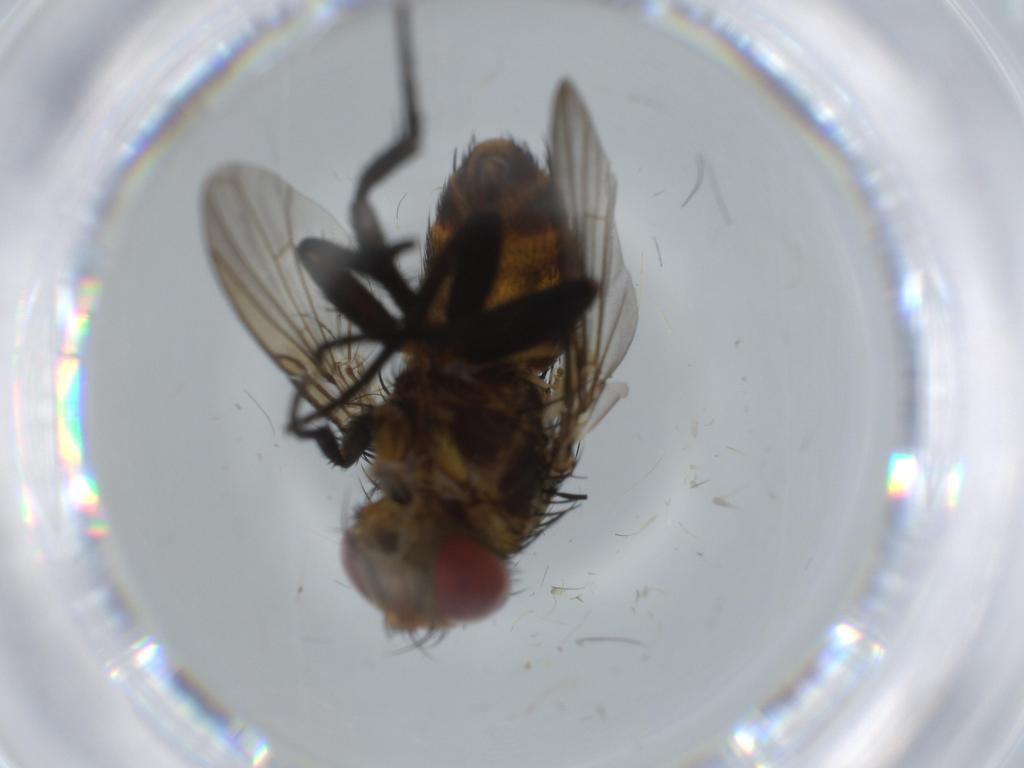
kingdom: Animalia
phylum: Arthropoda
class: Insecta
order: Diptera
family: Cecidomyiidae
